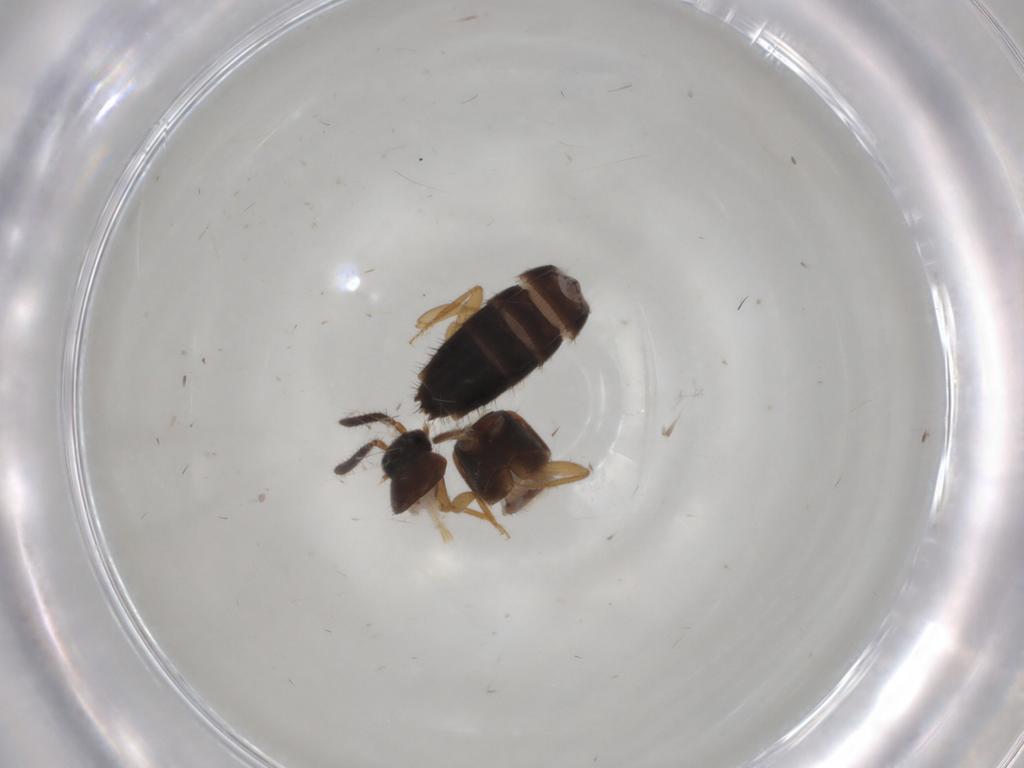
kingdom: Animalia
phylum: Arthropoda
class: Insecta
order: Coleoptera
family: Staphylinidae
